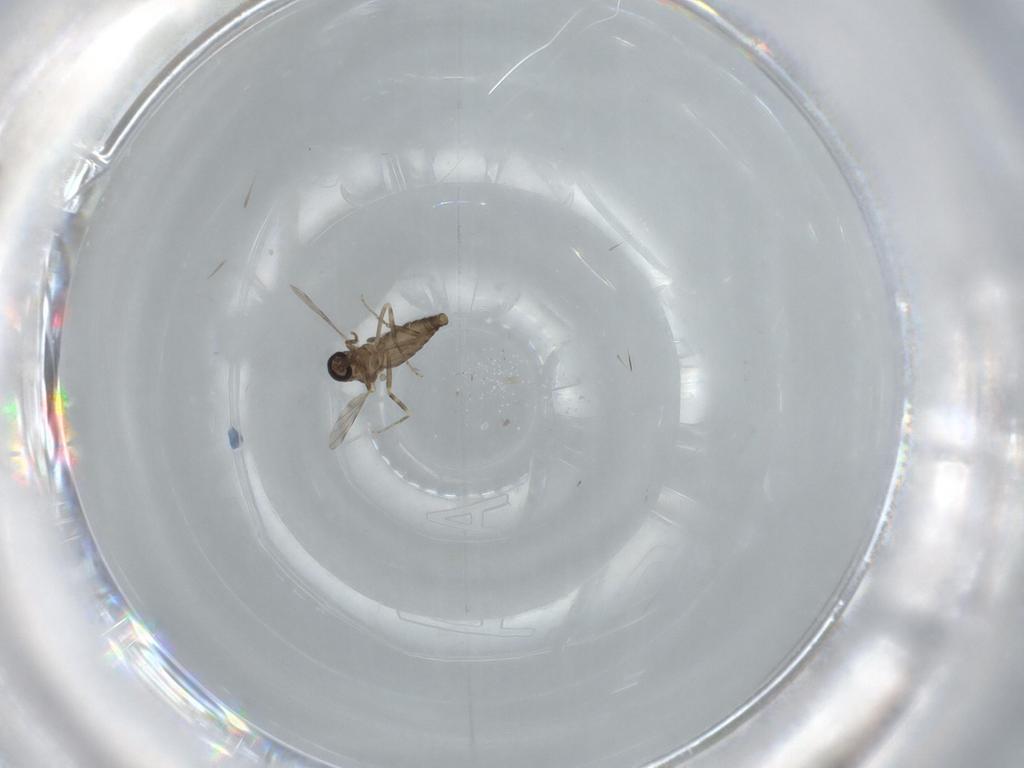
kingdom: Animalia
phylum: Arthropoda
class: Insecta
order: Diptera
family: Ceratopogonidae
